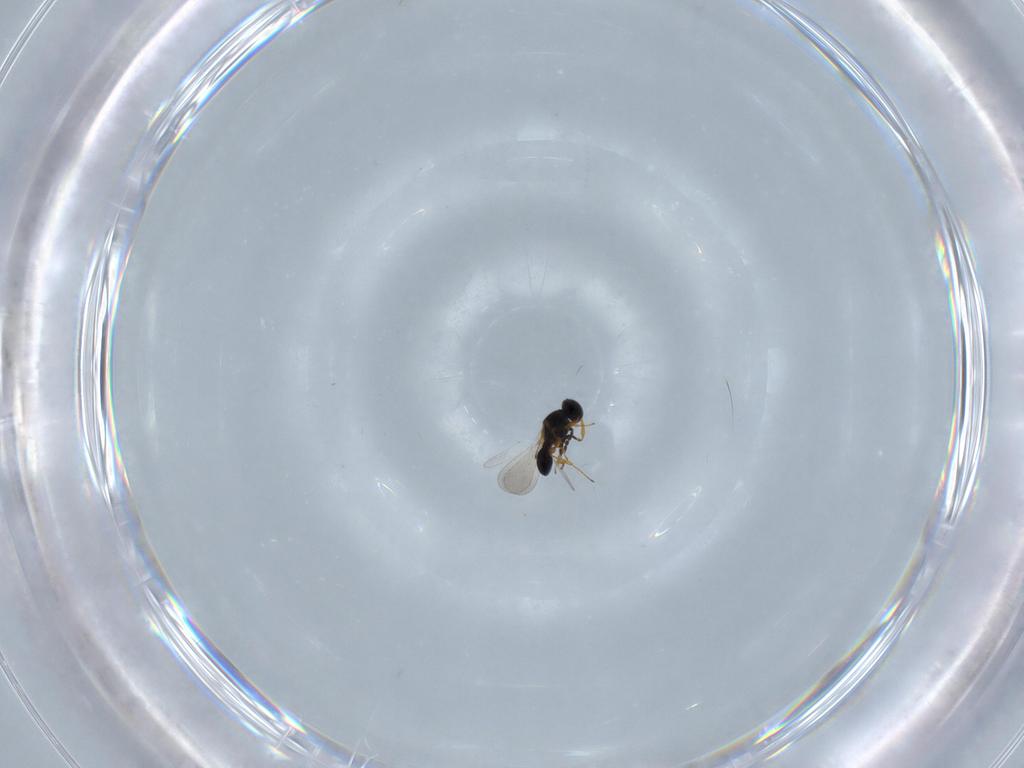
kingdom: Animalia
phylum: Arthropoda
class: Insecta
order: Hymenoptera
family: Platygastridae
